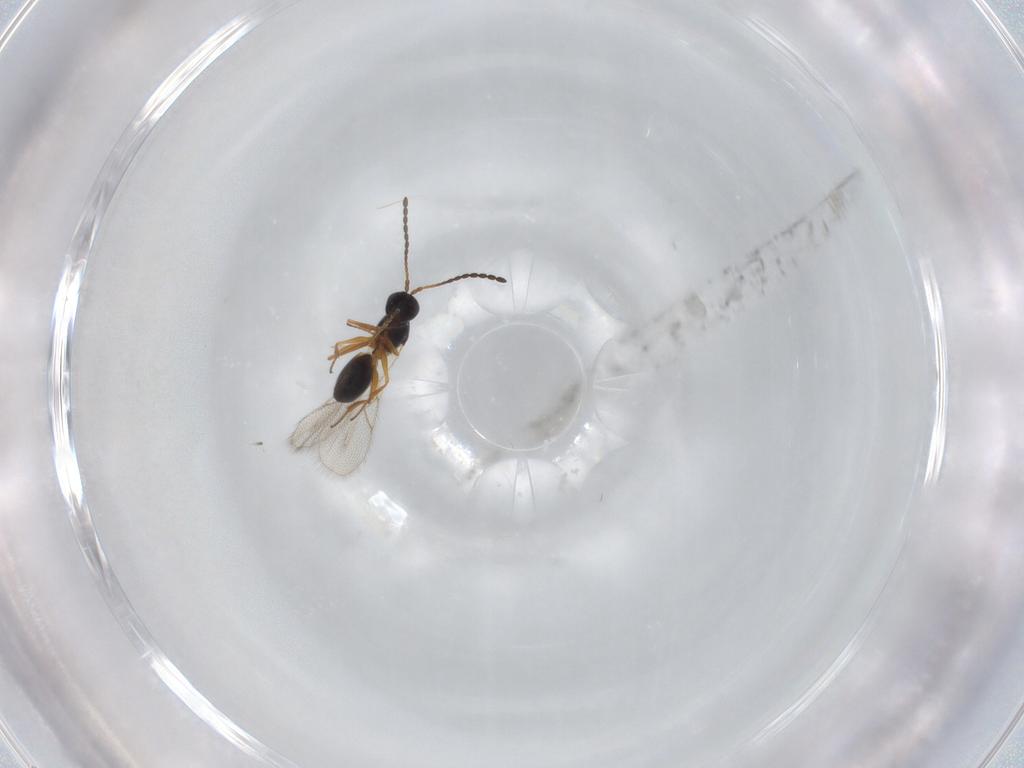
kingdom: Animalia
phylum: Arthropoda
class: Insecta
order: Hymenoptera
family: Figitidae
